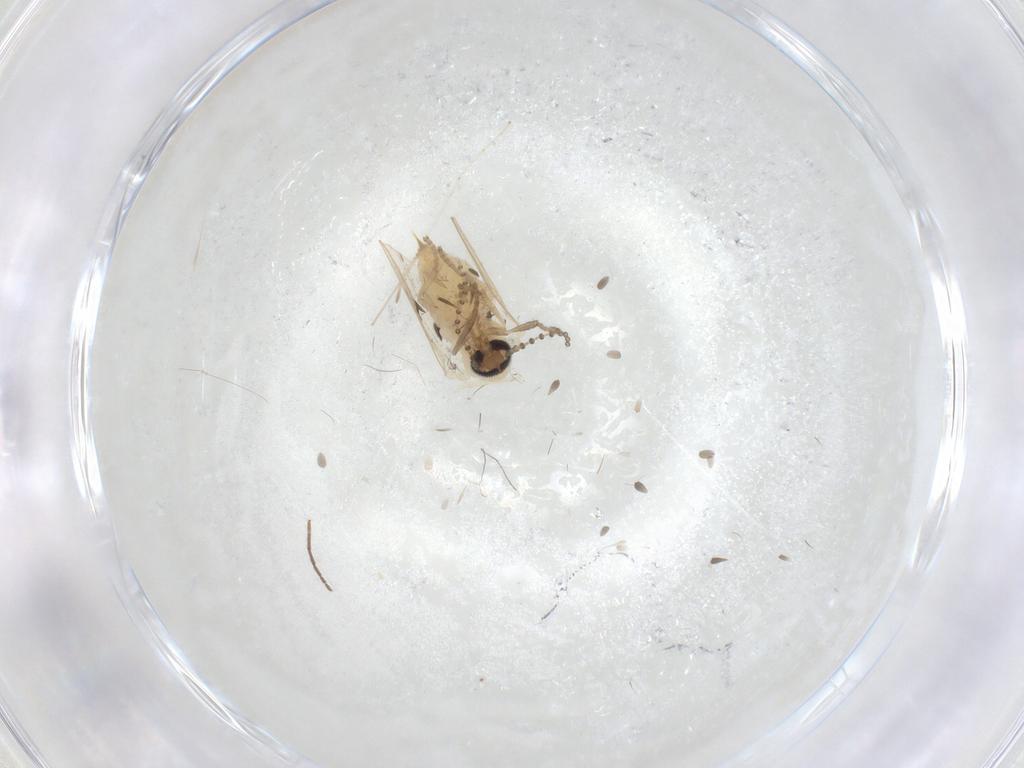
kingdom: Animalia
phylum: Arthropoda
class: Insecta
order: Diptera
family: Psychodidae
